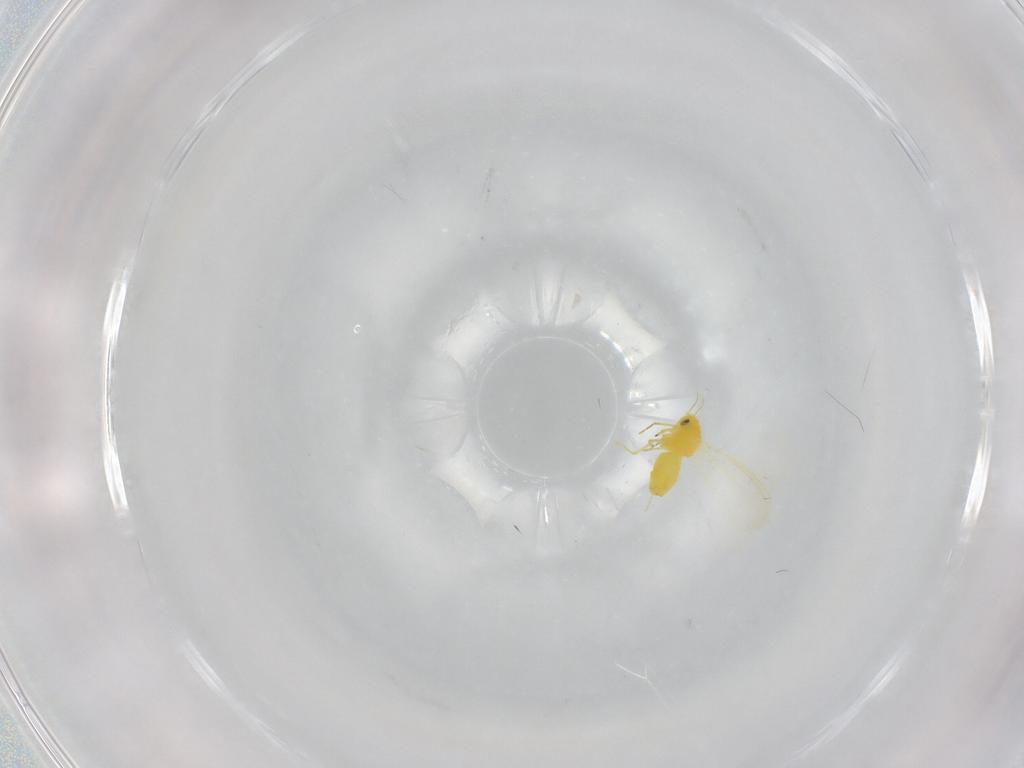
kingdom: Animalia
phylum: Arthropoda
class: Insecta
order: Hemiptera
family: Aleyrodidae
